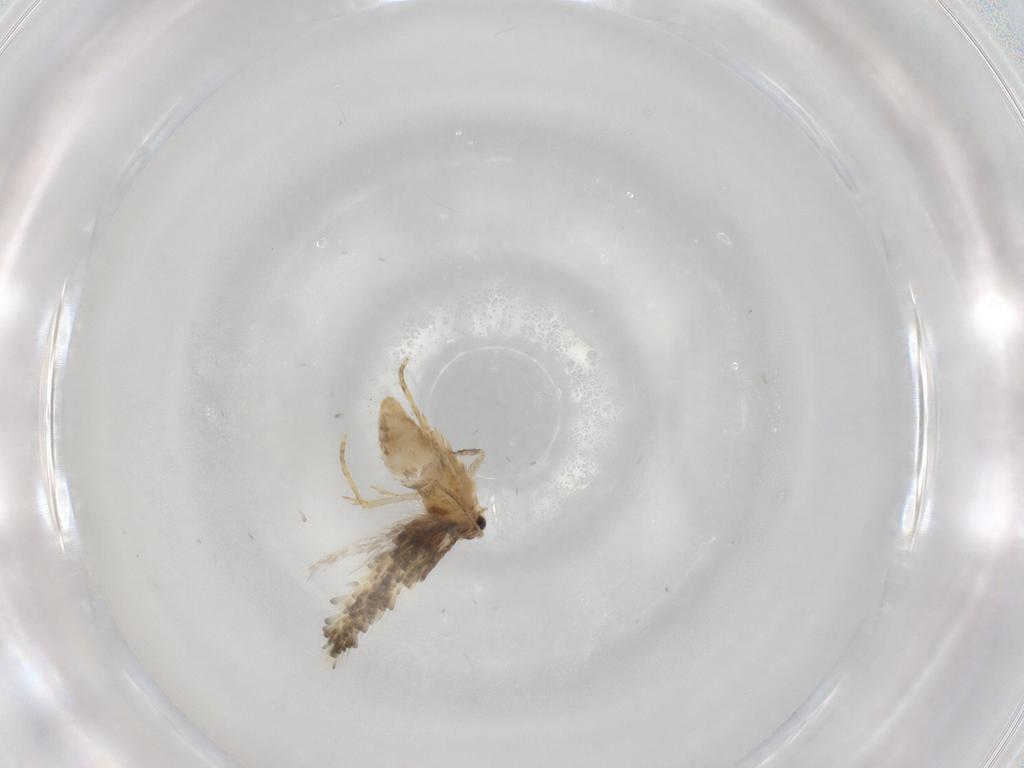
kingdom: Animalia
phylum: Arthropoda
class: Insecta
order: Lepidoptera
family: Nepticulidae
